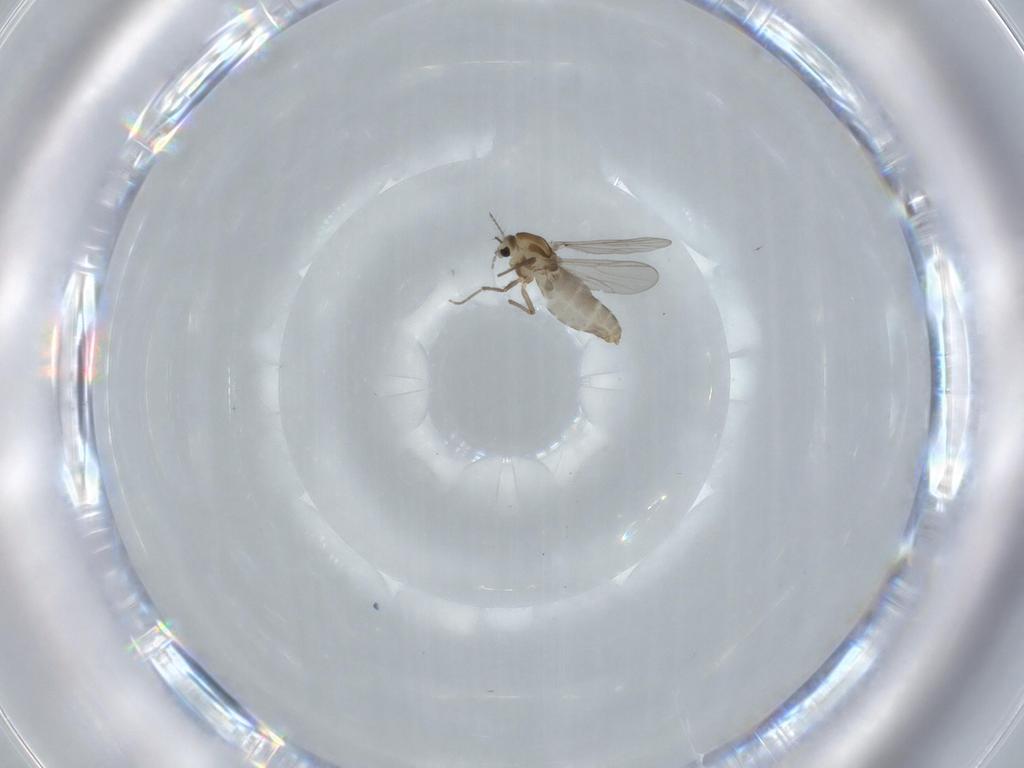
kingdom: Animalia
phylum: Arthropoda
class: Insecta
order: Diptera
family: Chironomidae
